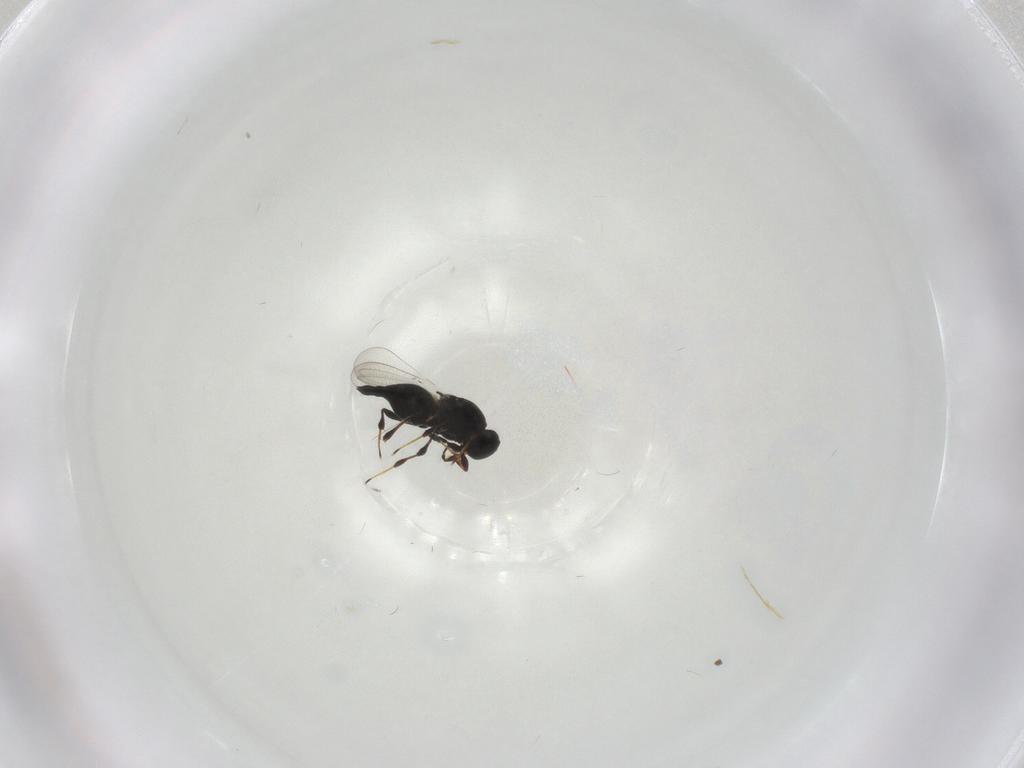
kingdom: Animalia
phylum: Arthropoda
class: Insecta
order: Hymenoptera
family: Platygastridae
